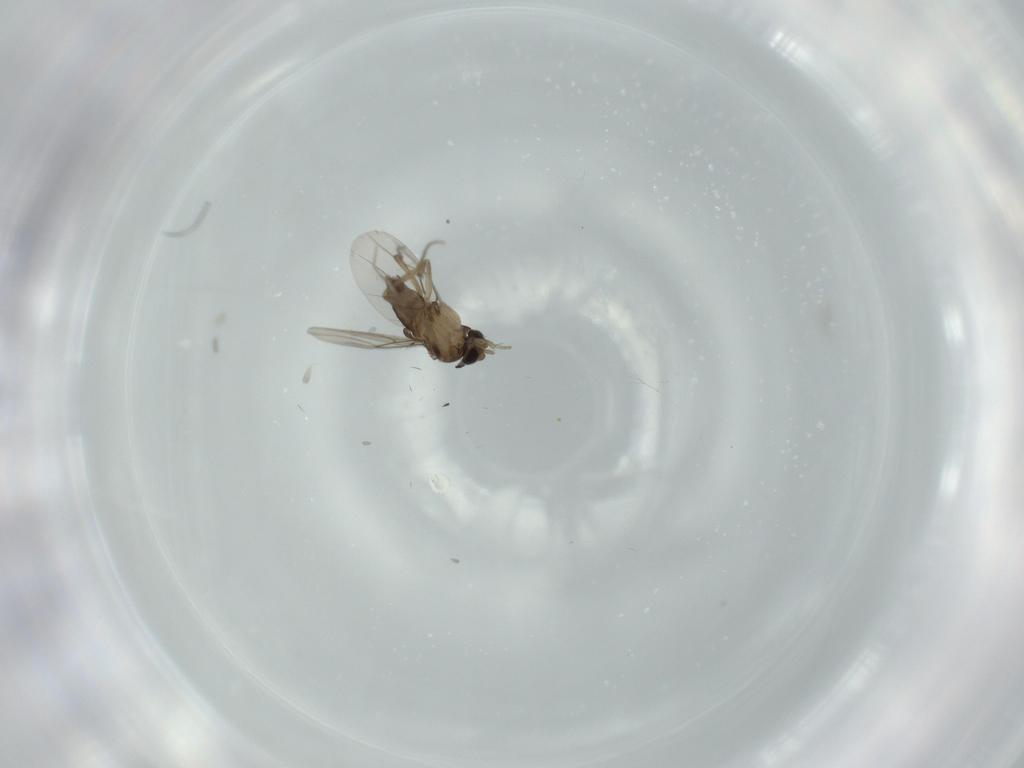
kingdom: Animalia
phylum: Arthropoda
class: Insecta
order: Diptera
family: Phoridae
